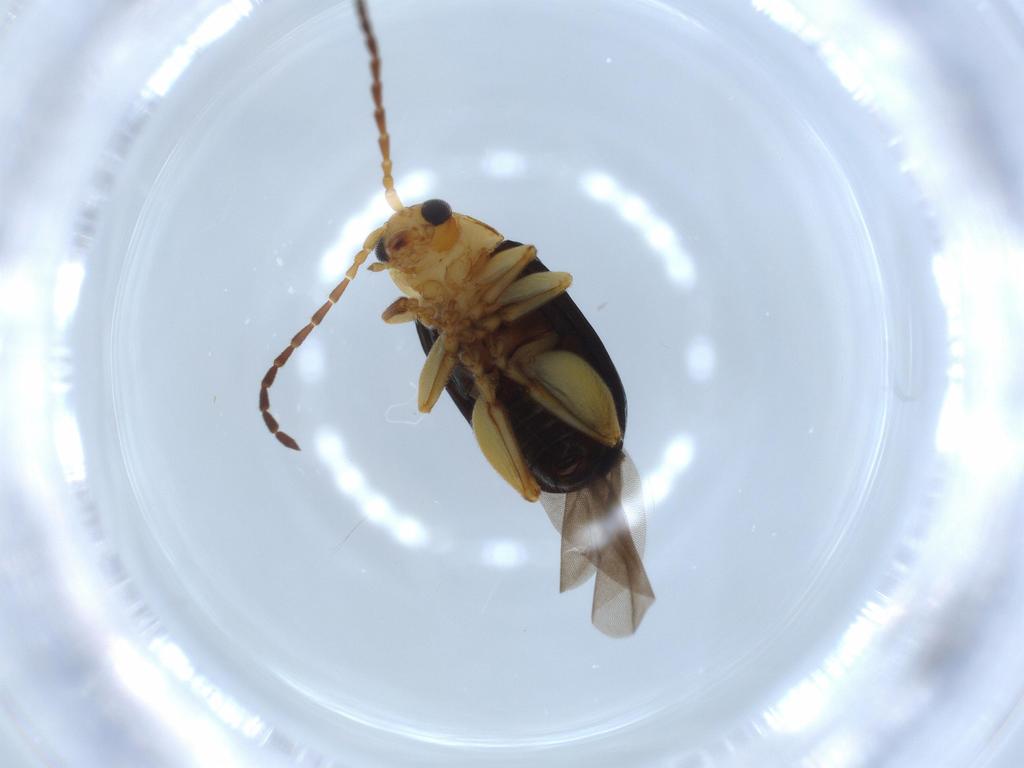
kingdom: Animalia
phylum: Arthropoda
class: Insecta
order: Coleoptera
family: Chrysomelidae
